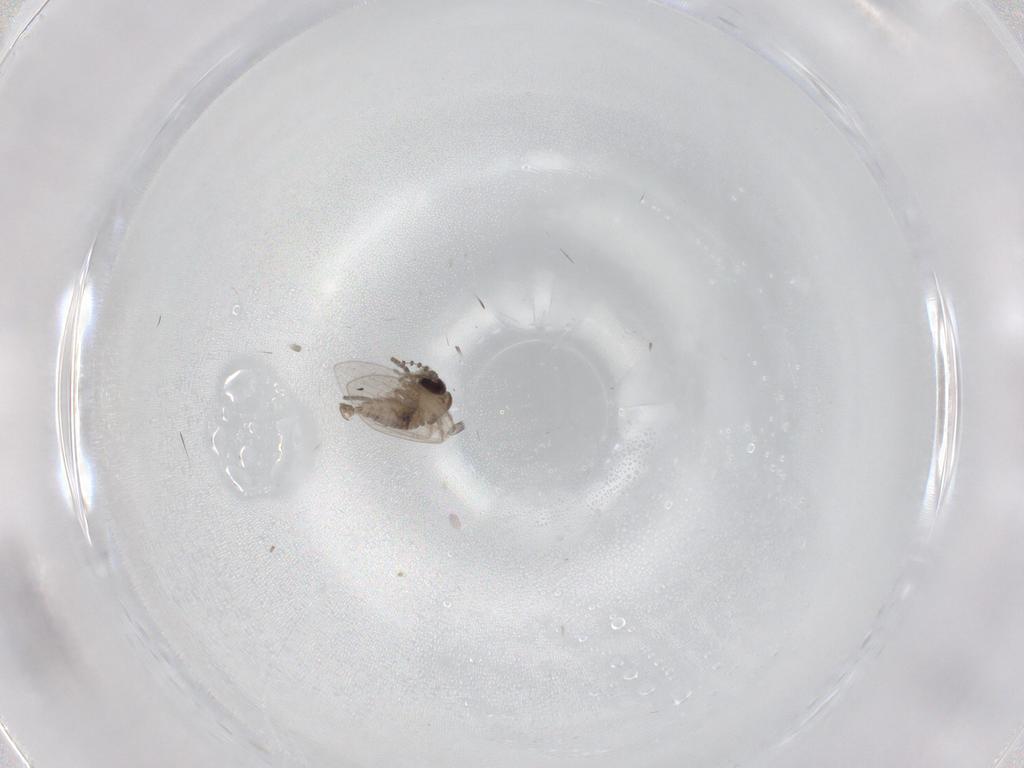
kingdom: Animalia
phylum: Arthropoda
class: Insecta
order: Diptera
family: Psychodidae
